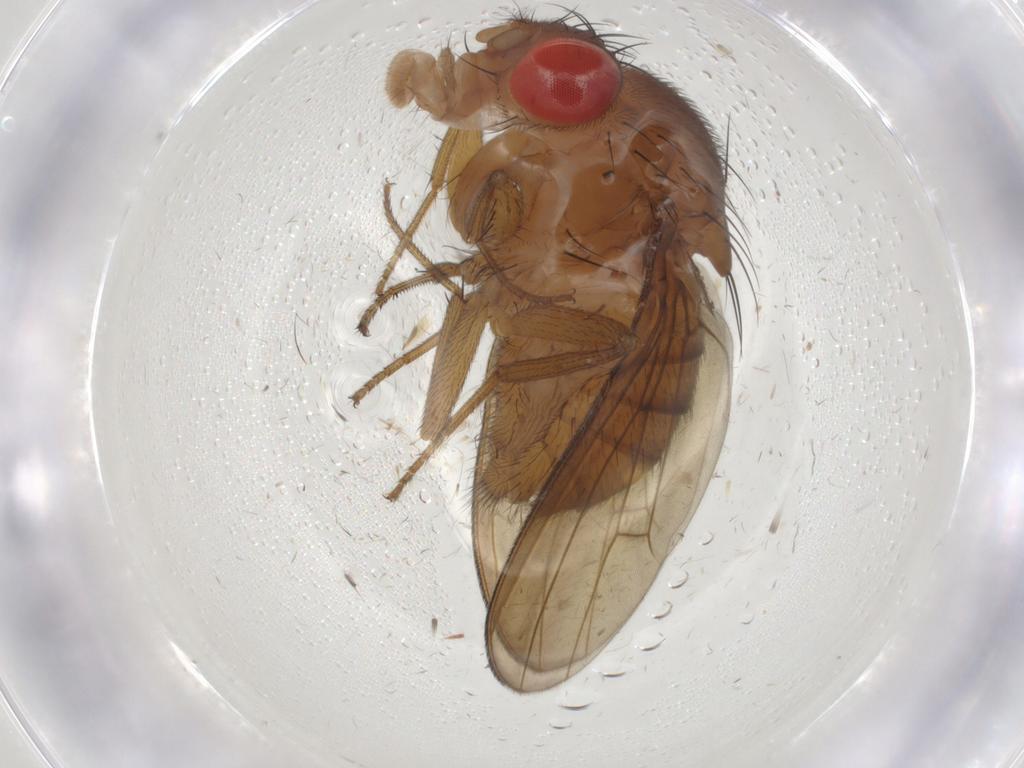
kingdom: Animalia
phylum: Arthropoda
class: Insecta
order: Diptera
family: Drosophilidae
